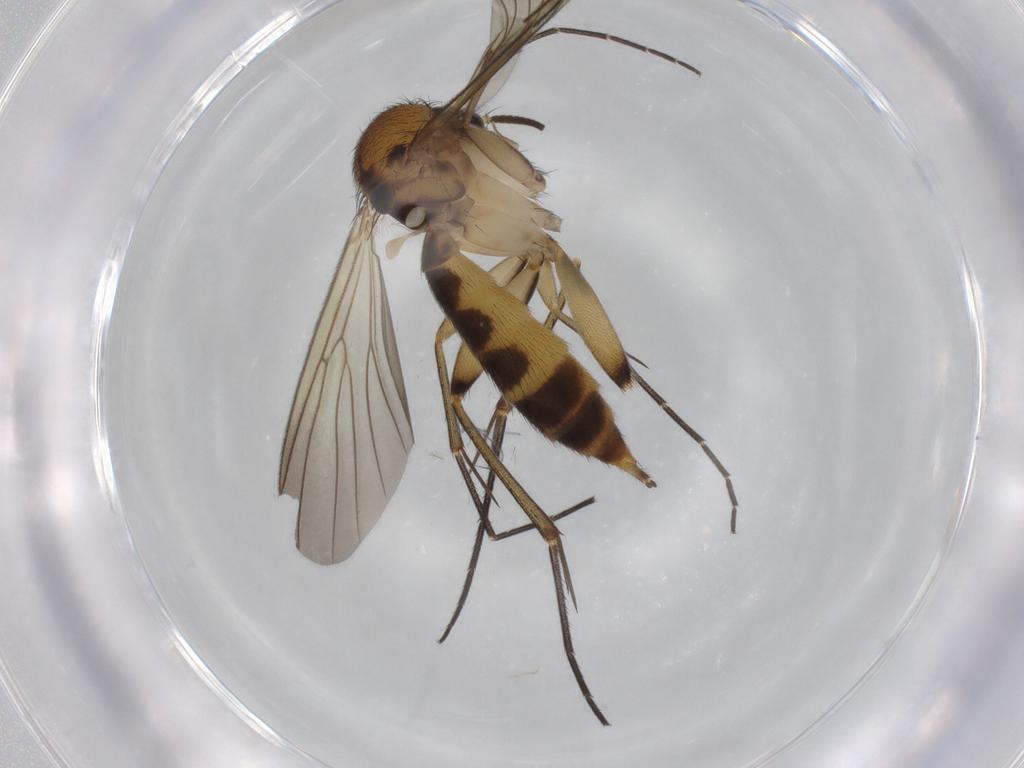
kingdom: Animalia
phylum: Arthropoda
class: Insecta
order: Diptera
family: Mycetophilidae
